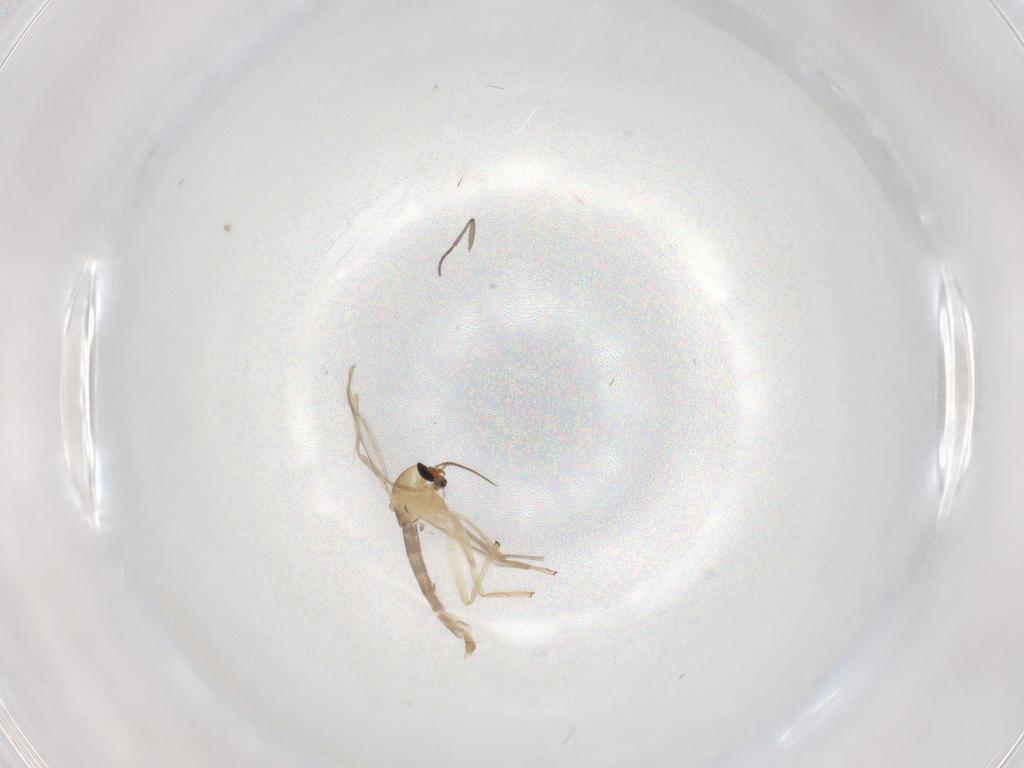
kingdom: Animalia
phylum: Arthropoda
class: Insecta
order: Diptera
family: Chironomidae
